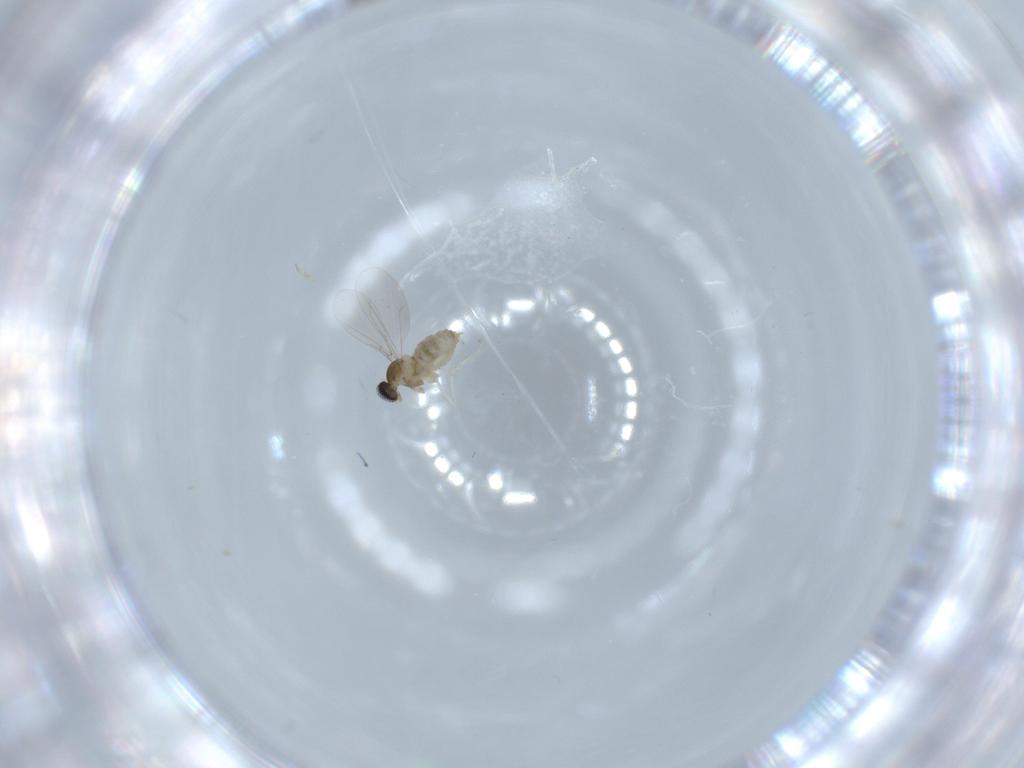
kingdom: Animalia
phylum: Arthropoda
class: Insecta
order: Diptera
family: Cecidomyiidae
